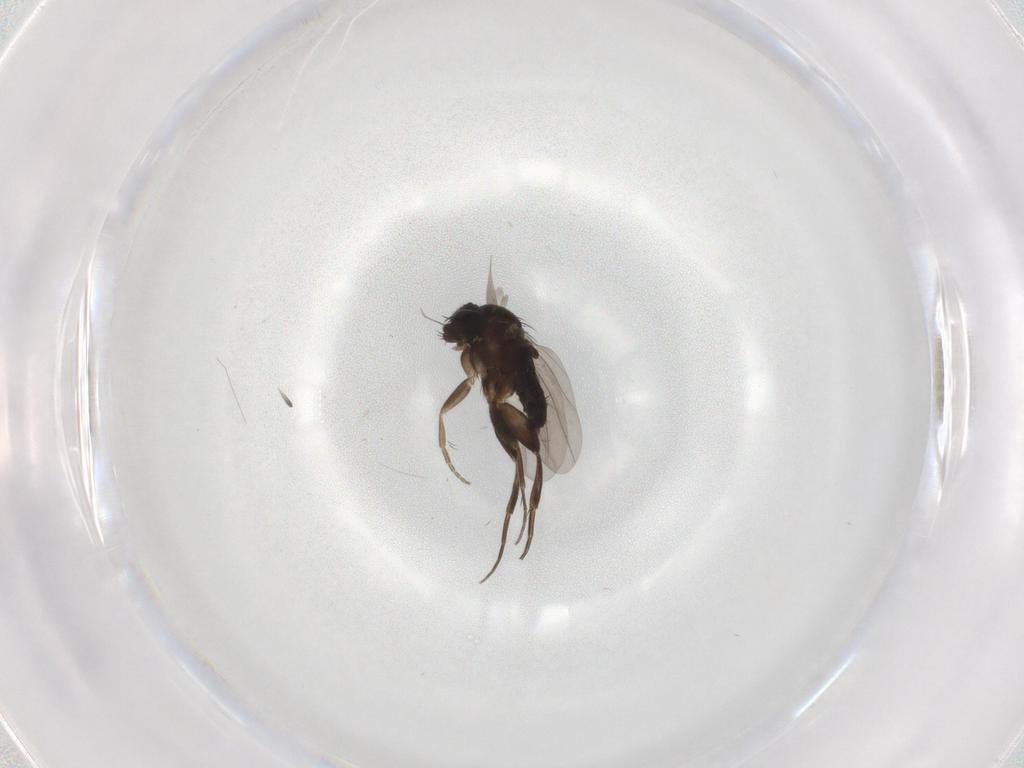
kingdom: Animalia
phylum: Arthropoda
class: Insecta
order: Diptera
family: Phoridae
